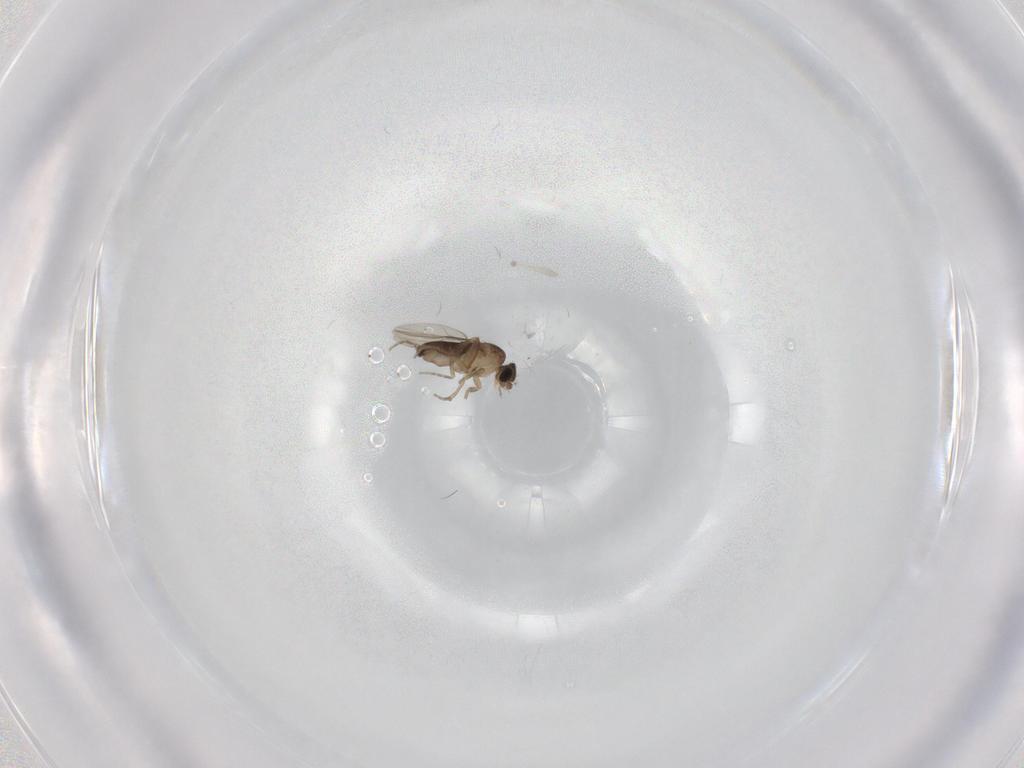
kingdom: Animalia
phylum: Arthropoda
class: Insecta
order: Diptera
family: Phoridae
